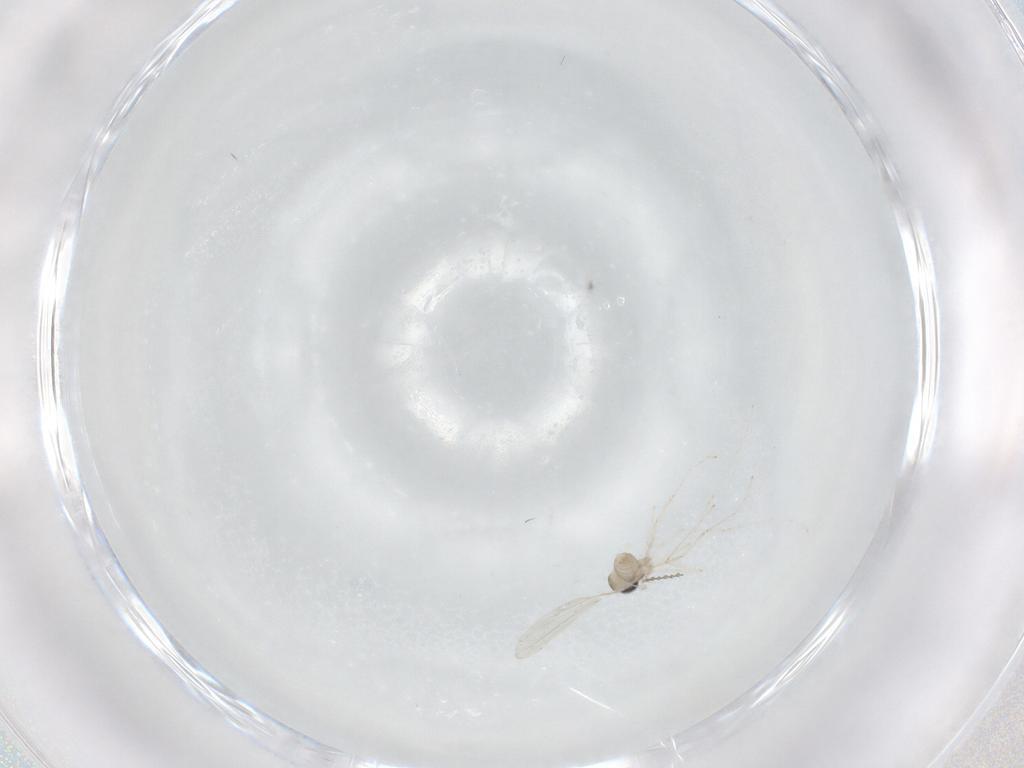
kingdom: Animalia
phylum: Arthropoda
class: Insecta
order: Diptera
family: Cecidomyiidae
